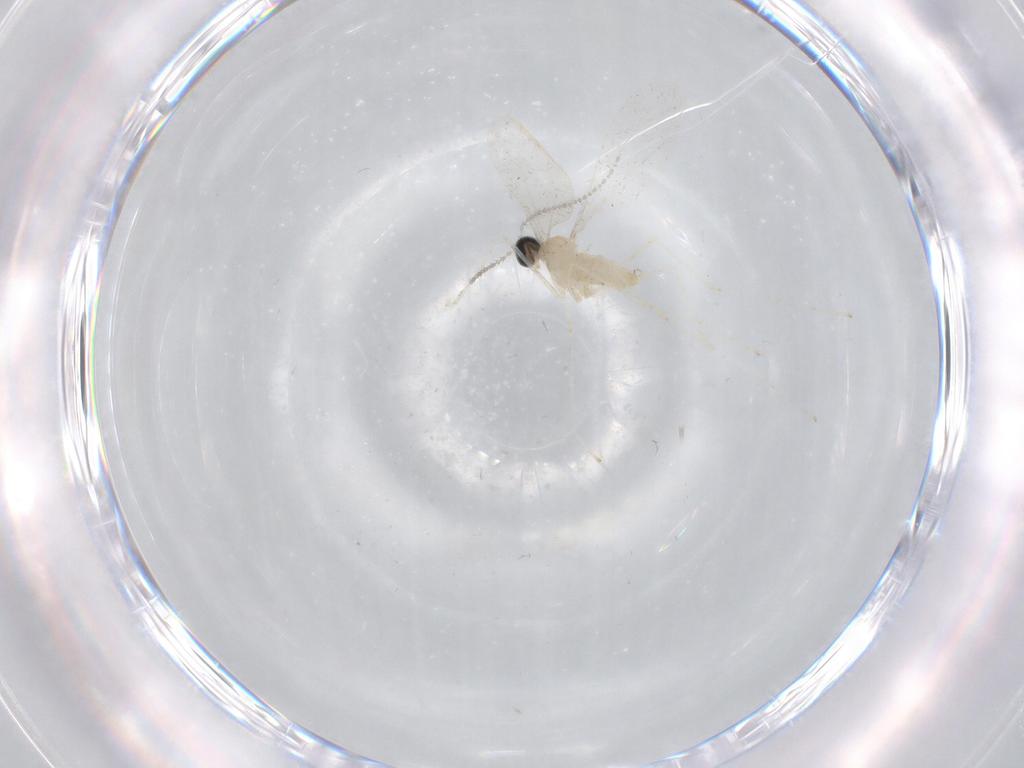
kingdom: Animalia
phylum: Arthropoda
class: Insecta
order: Diptera
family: Cecidomyiidae
